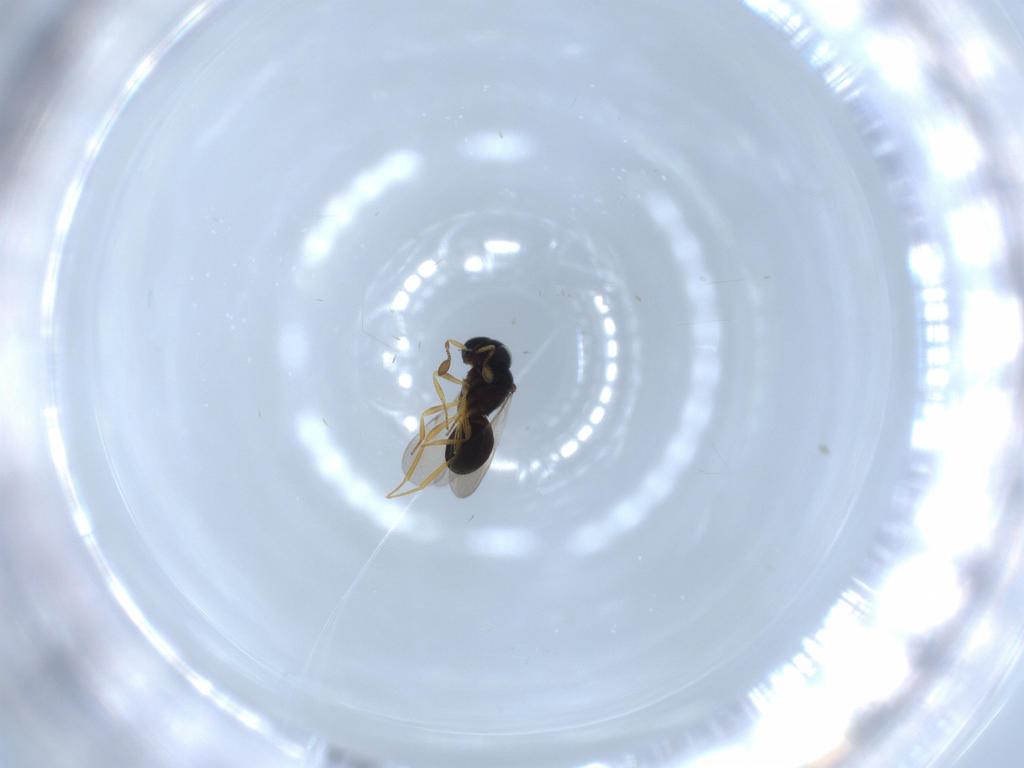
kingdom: Animalia
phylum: Arthropoda
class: Insecta
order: Hymenoptera
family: Scelionidae
